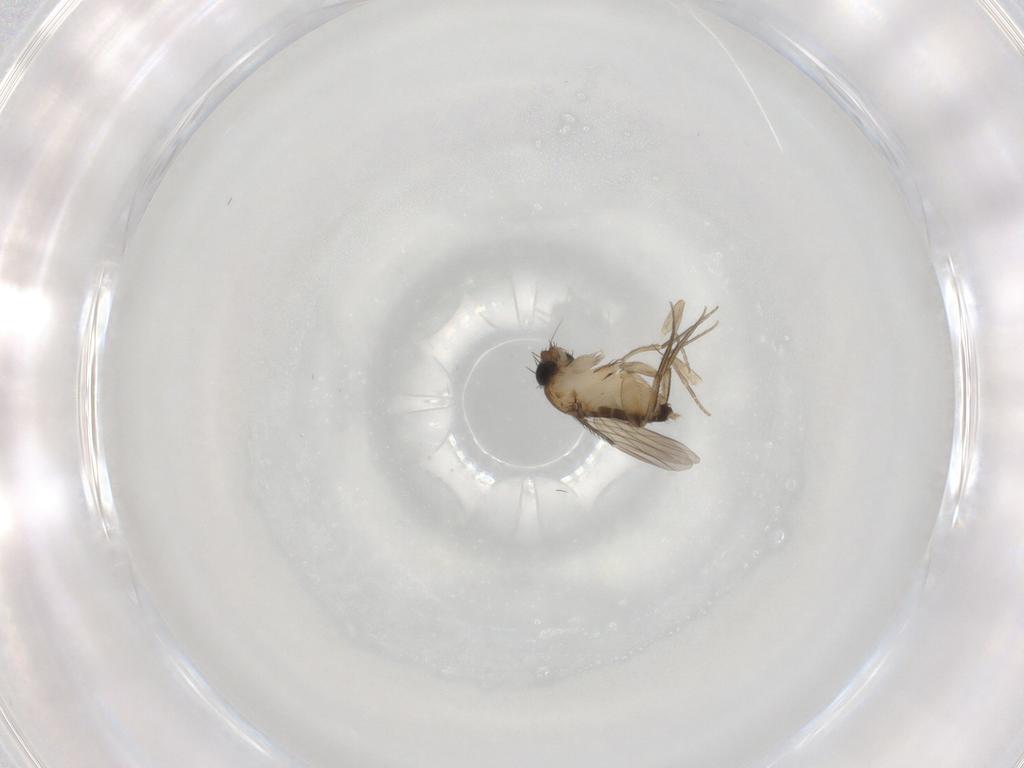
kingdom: Animalia
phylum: Arthropoda
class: Insecta
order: Diptera
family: Phoridae
